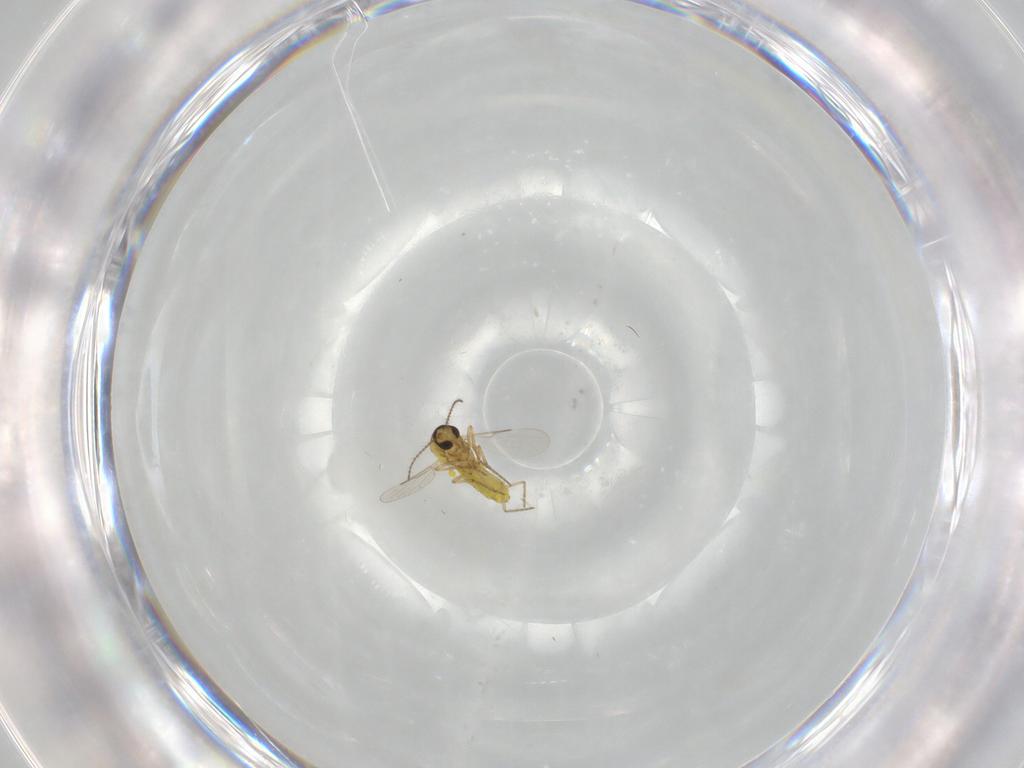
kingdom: Animalia
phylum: Arthropoda
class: Insecta
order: Diptera
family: Ceratopogonidae
